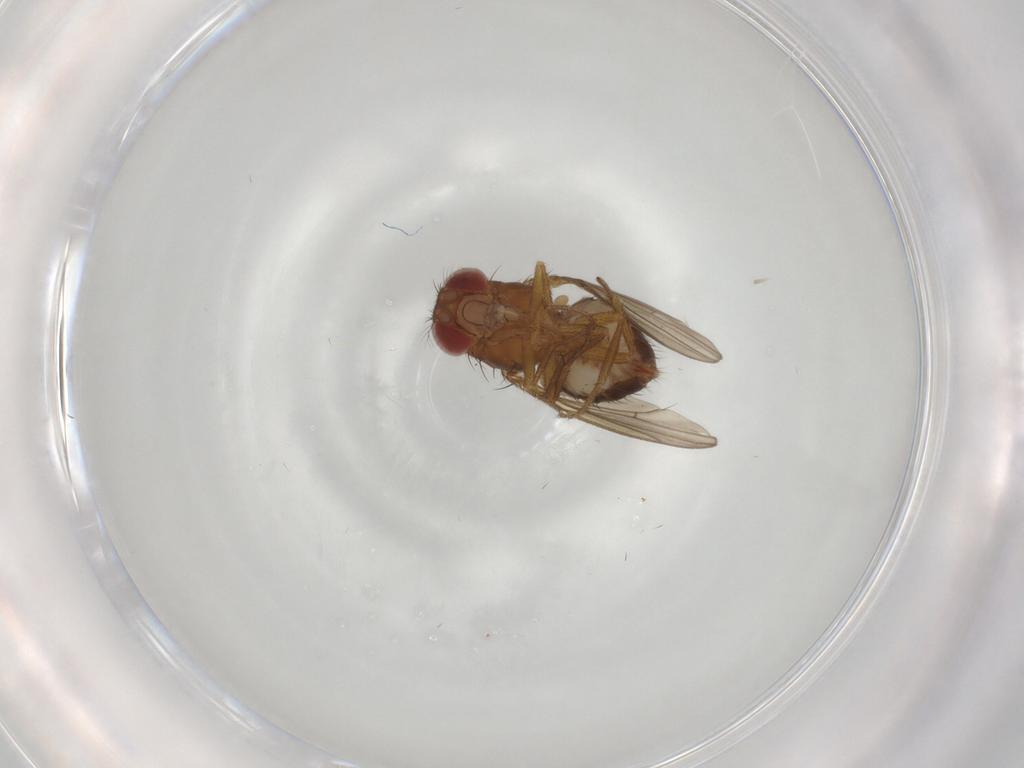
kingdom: Animalia
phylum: Arthropoda
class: Insecta
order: Diptera
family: Drosophilidae
